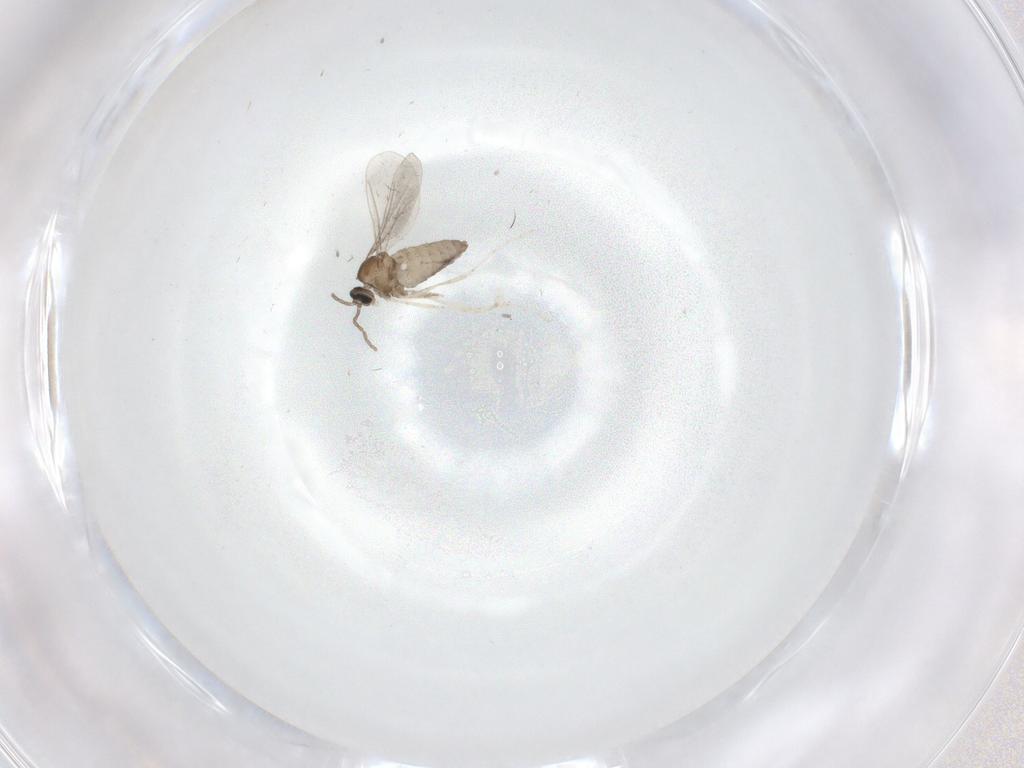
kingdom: Animalia
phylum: Arthropoda
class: Insecta
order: Diptera
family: Cecidomyiidae
